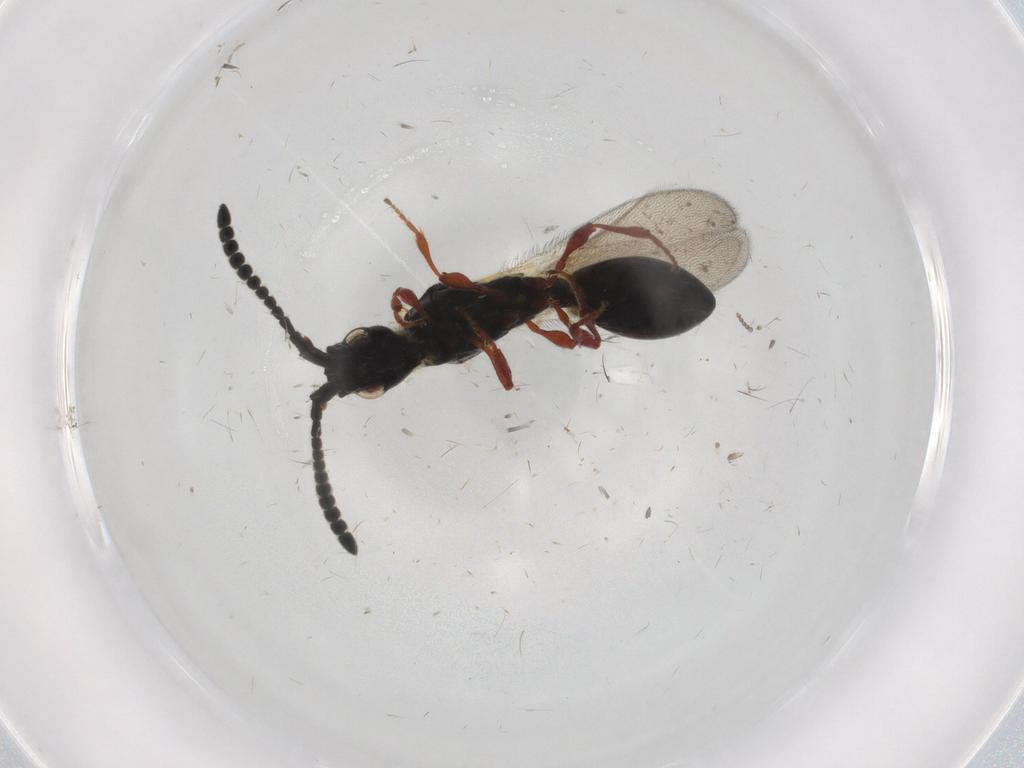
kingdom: Animalia
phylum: Arthropoda
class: Insecta
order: Hymenoptera
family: Diapriidae
